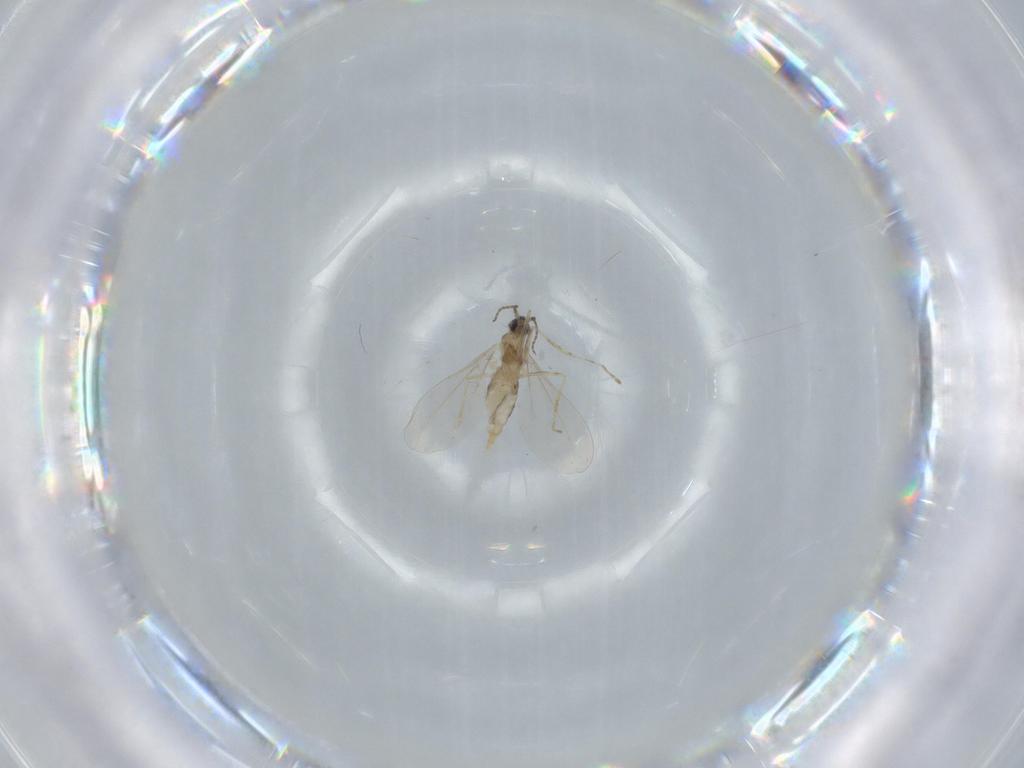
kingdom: Animalia
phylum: Arthropoda
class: Insecta
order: Diptera
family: Cecidomyiidae
